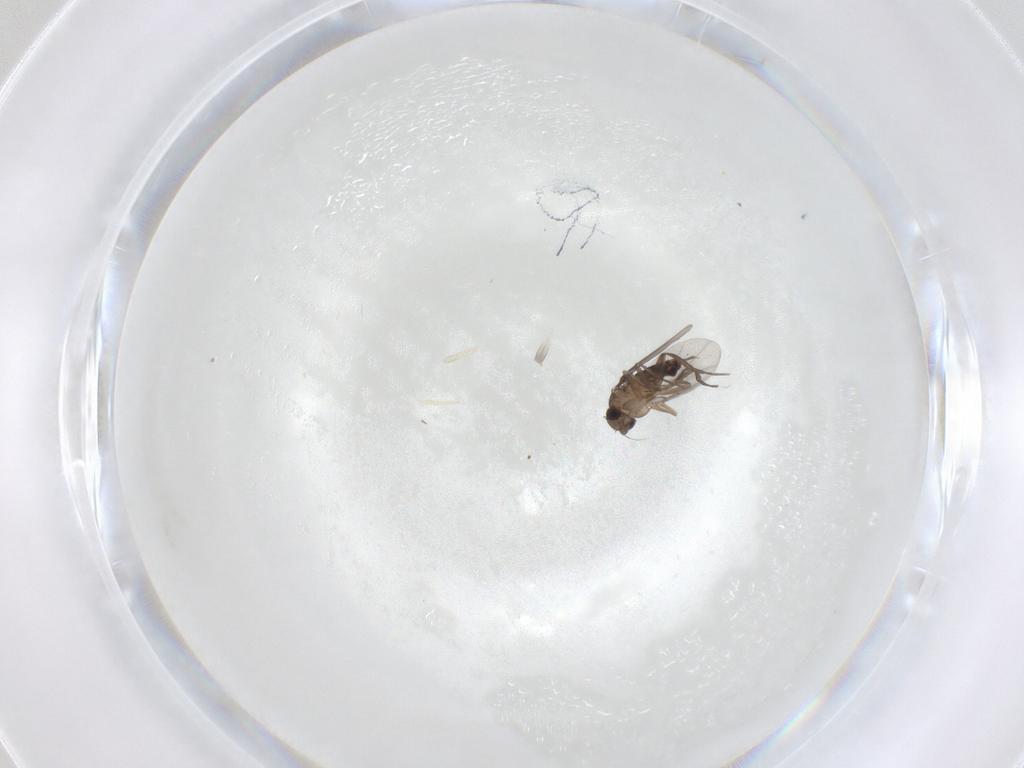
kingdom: Animalia
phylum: Arthropoda
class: Insecta
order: Diptera
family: Phoridae
